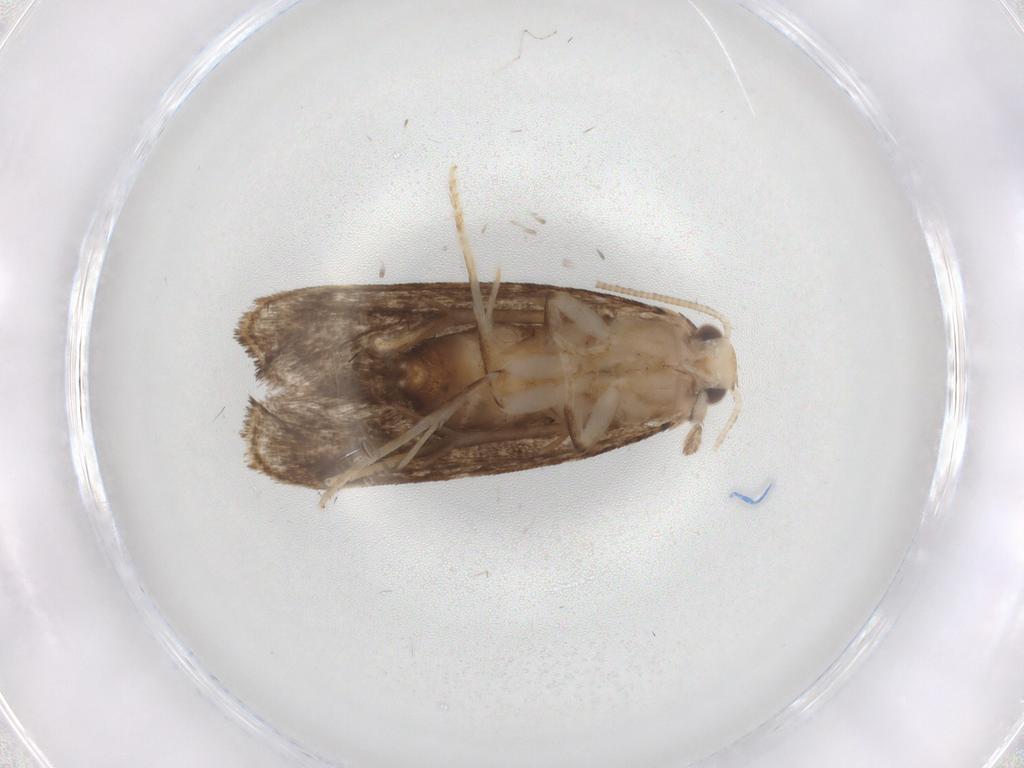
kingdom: Animalia
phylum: Arthropoda
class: Insecta
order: Lepidoptera
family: Dryadaulidae
